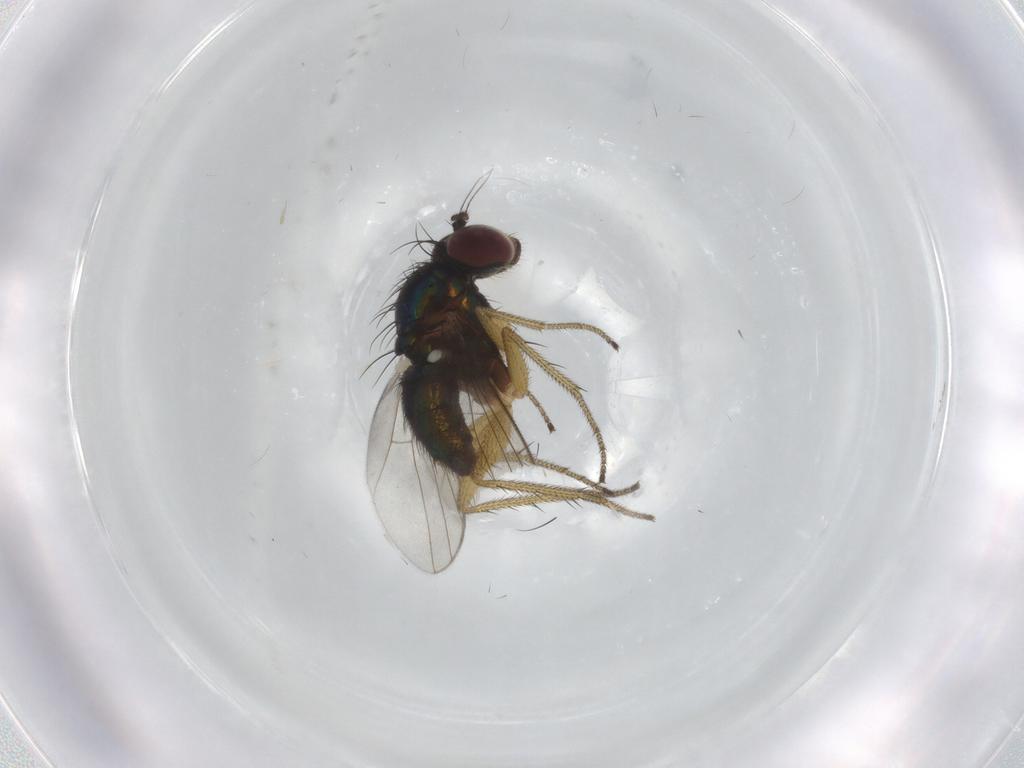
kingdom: Animalia
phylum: Arthropoda
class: Insecta
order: Diptera
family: Dolichopodidae
